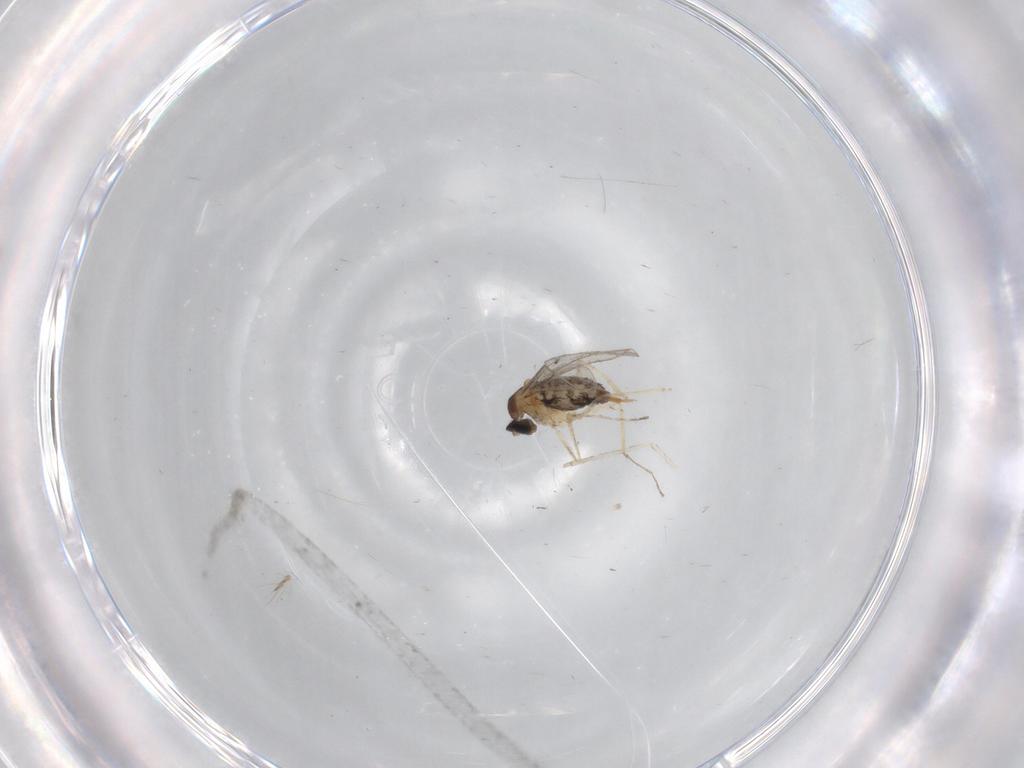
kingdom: Animalia
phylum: Arthropoda
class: Insecta
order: Diptera
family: Cecidomyiidae
